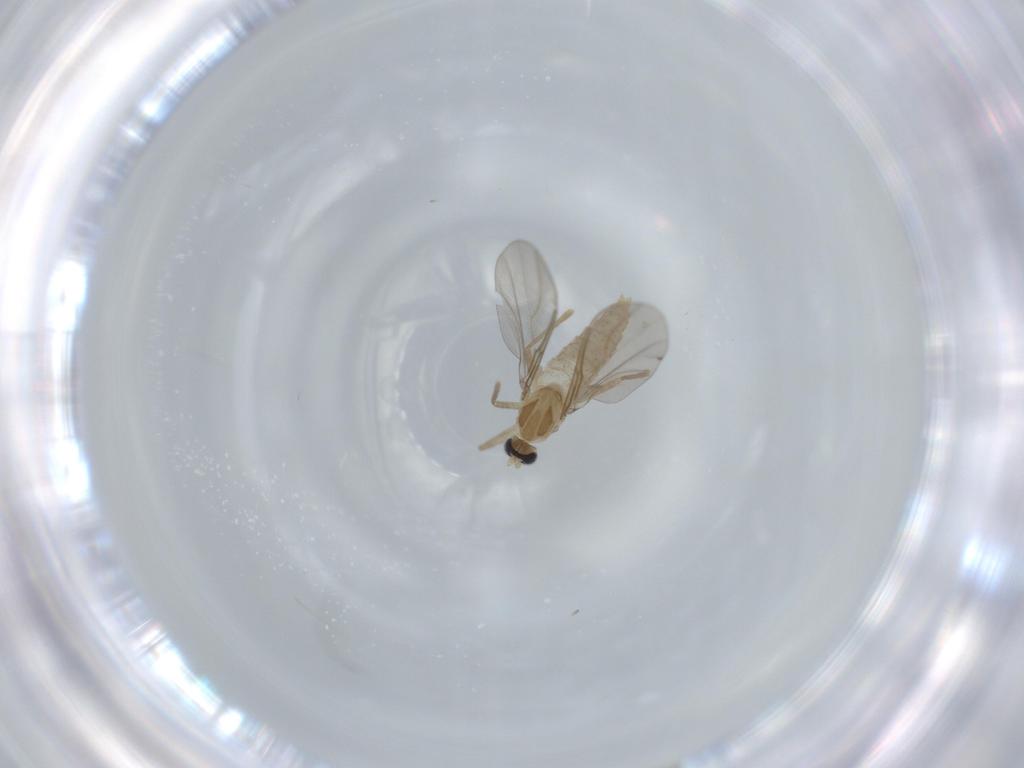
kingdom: Animalia
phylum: Arthropoda
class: Insecta
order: Diptera
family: Cecidomyiidae
